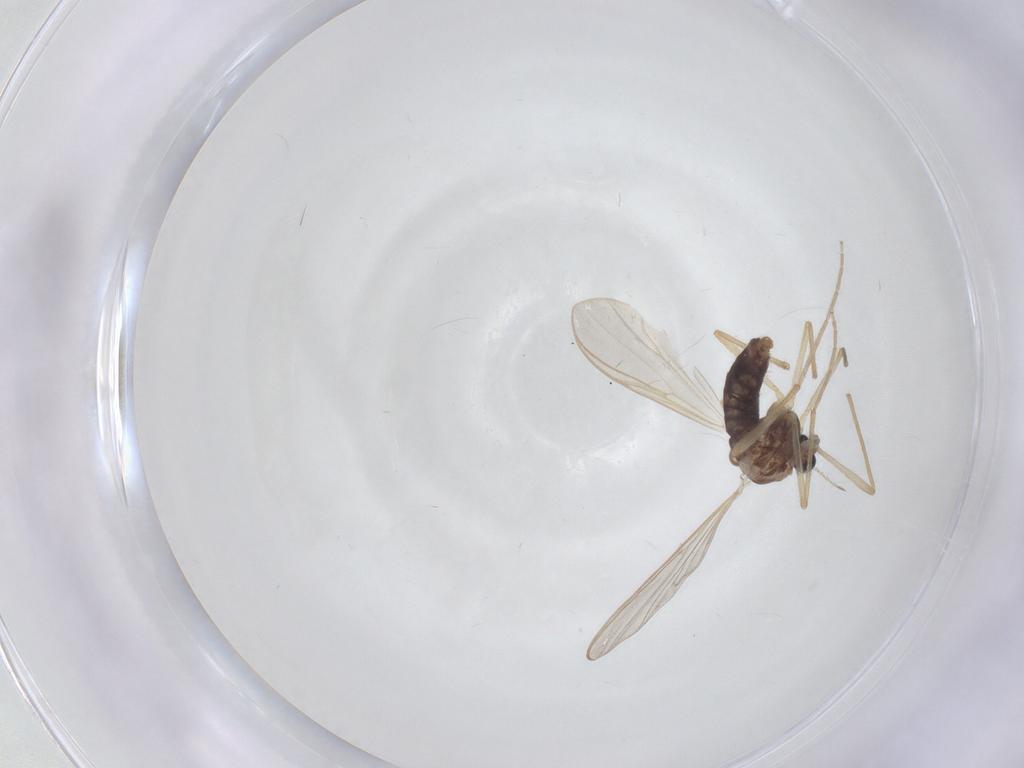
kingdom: Animalia
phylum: Arthropoda
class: Insecta
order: Diptera
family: Chironomidae
